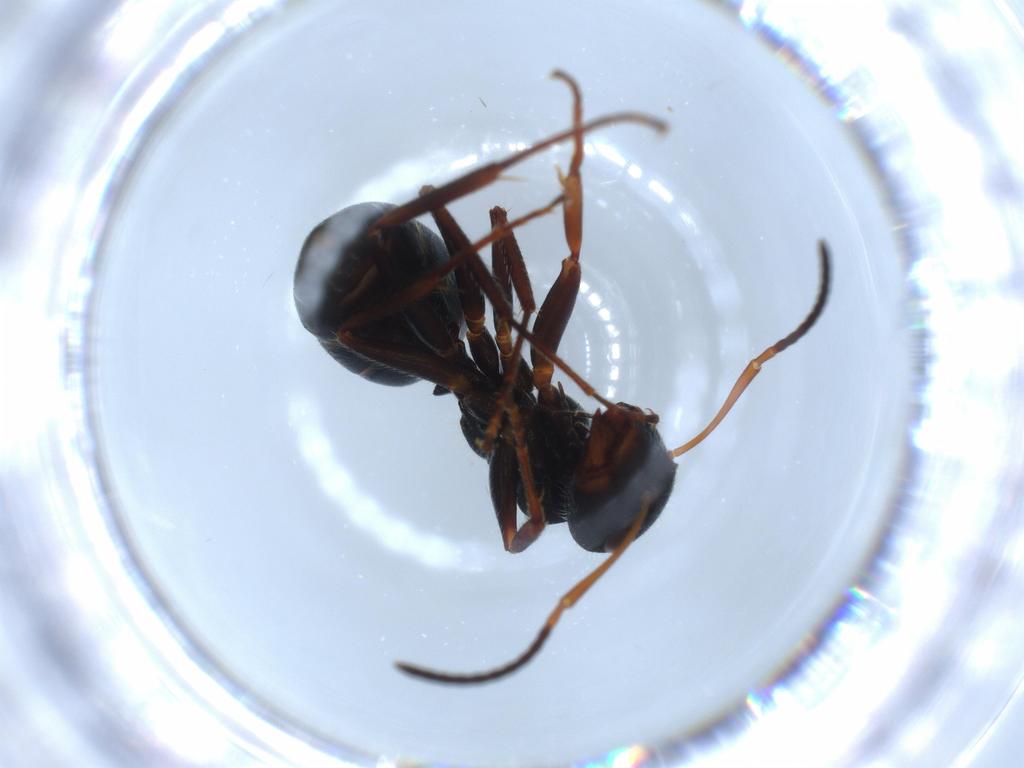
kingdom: Animalia
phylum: Arthropoda
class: Insecta
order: Hymenoptera
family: Formicidae
